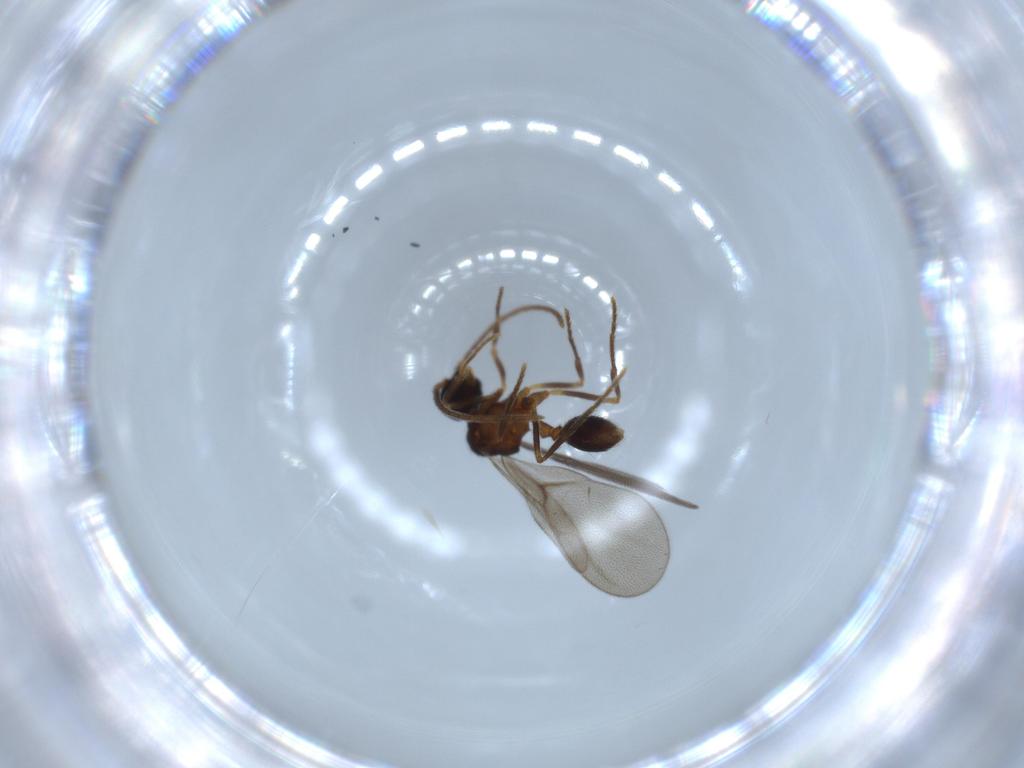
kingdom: Animalia
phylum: Arthropoda
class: Insecta
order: Hymenoptera
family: Formicidae
